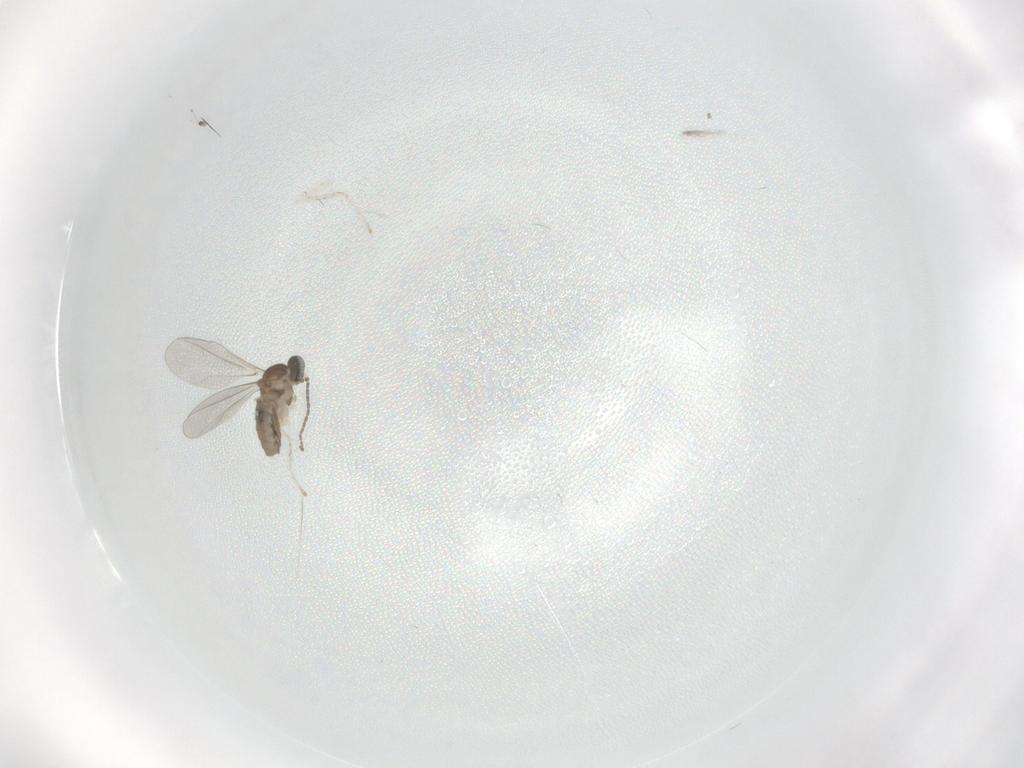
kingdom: Animalia
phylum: Arthropoda
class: Insecta
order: Diptera
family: Cecidomyiidae
